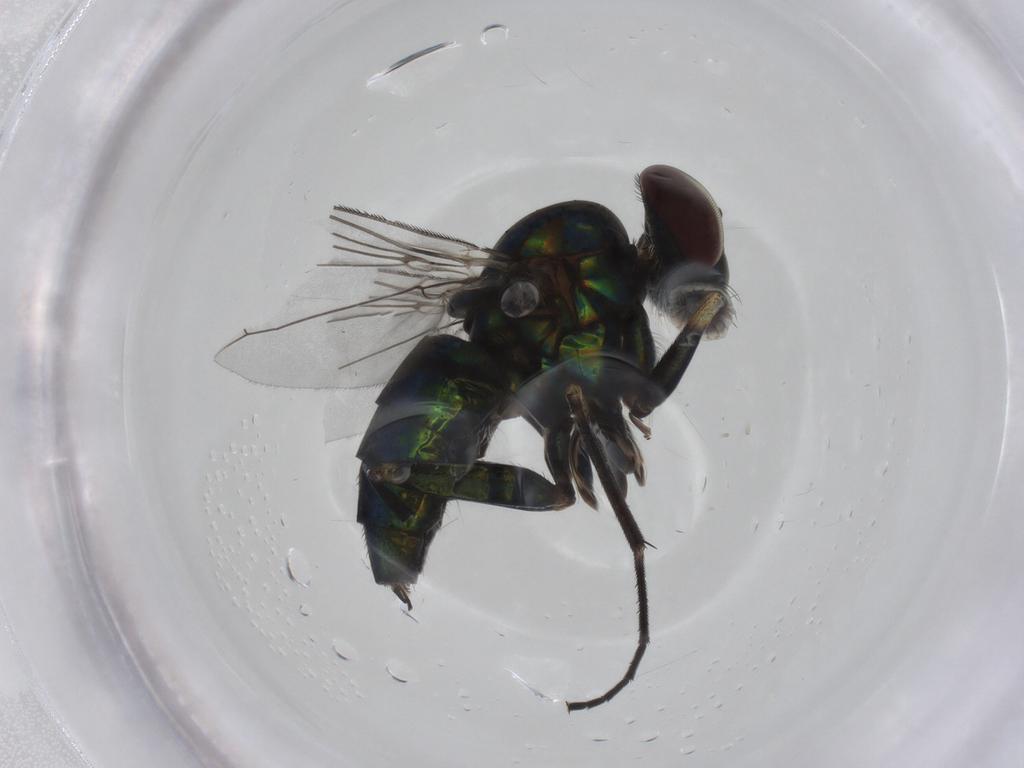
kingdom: Animalia
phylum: Arthropoda
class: Insecta
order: Diptera
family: Dolichopodidae
